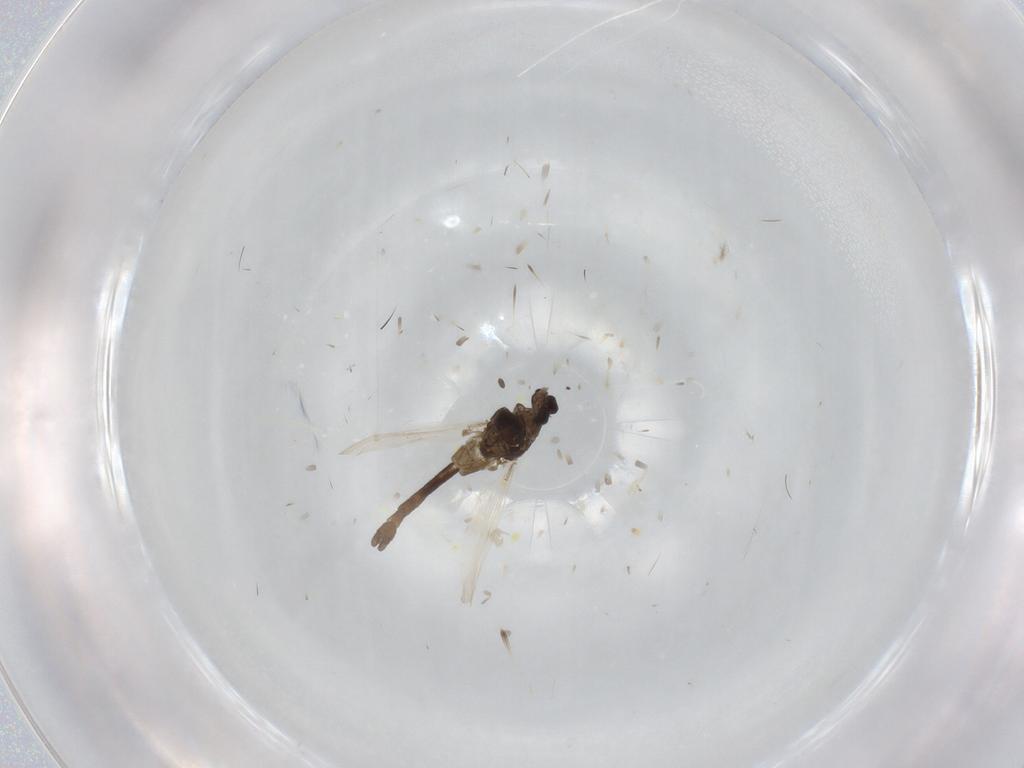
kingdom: Animalia
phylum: Arthropoda
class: Insecta
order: Diptera
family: Chironomidae
